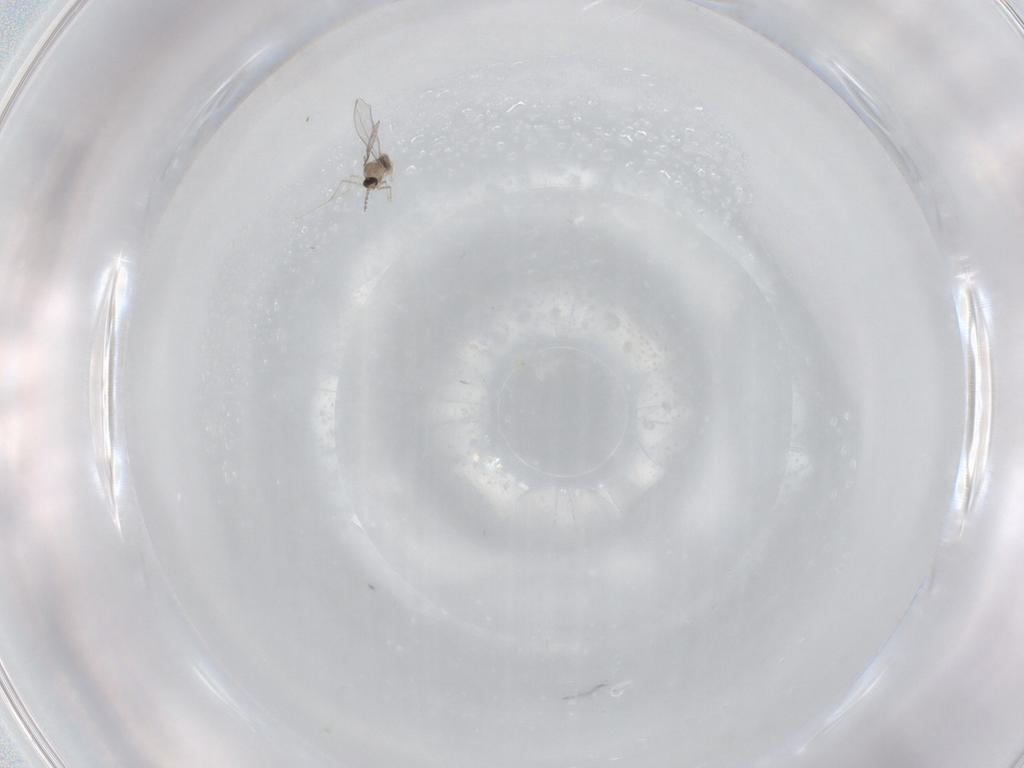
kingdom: Animalia
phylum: Arthropoda
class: Insecta
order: Diptera
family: Cecidomyiidae
